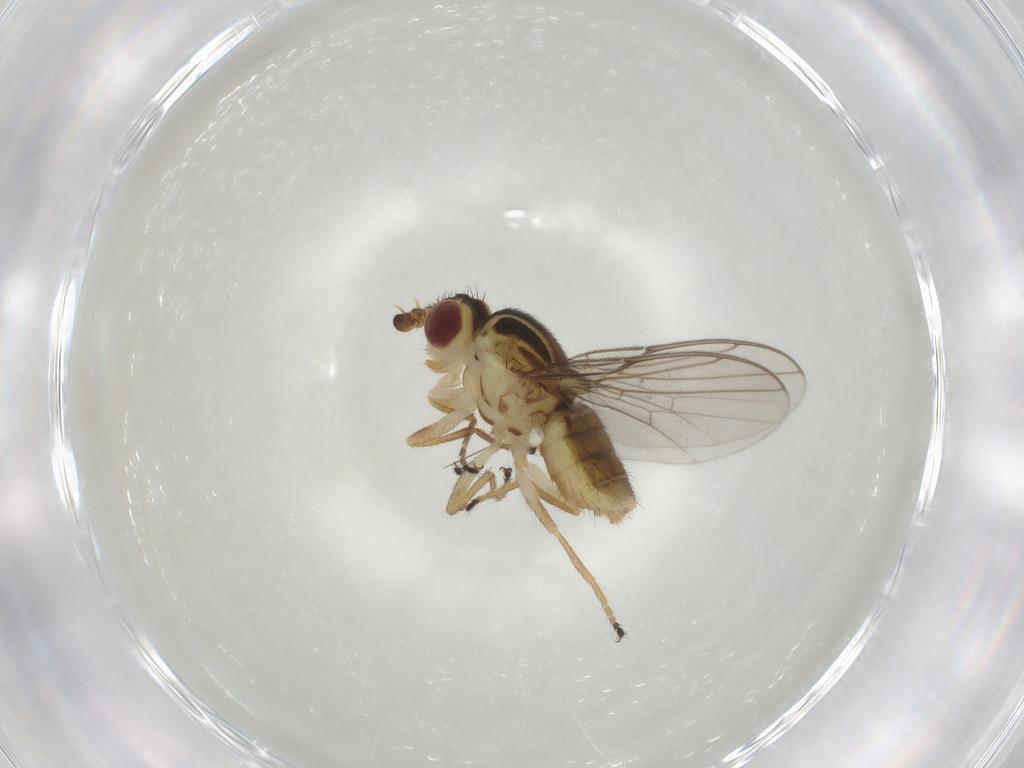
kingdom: Animalia
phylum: Arthropoda
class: Insecta
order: Diptera
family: Chloropidae
